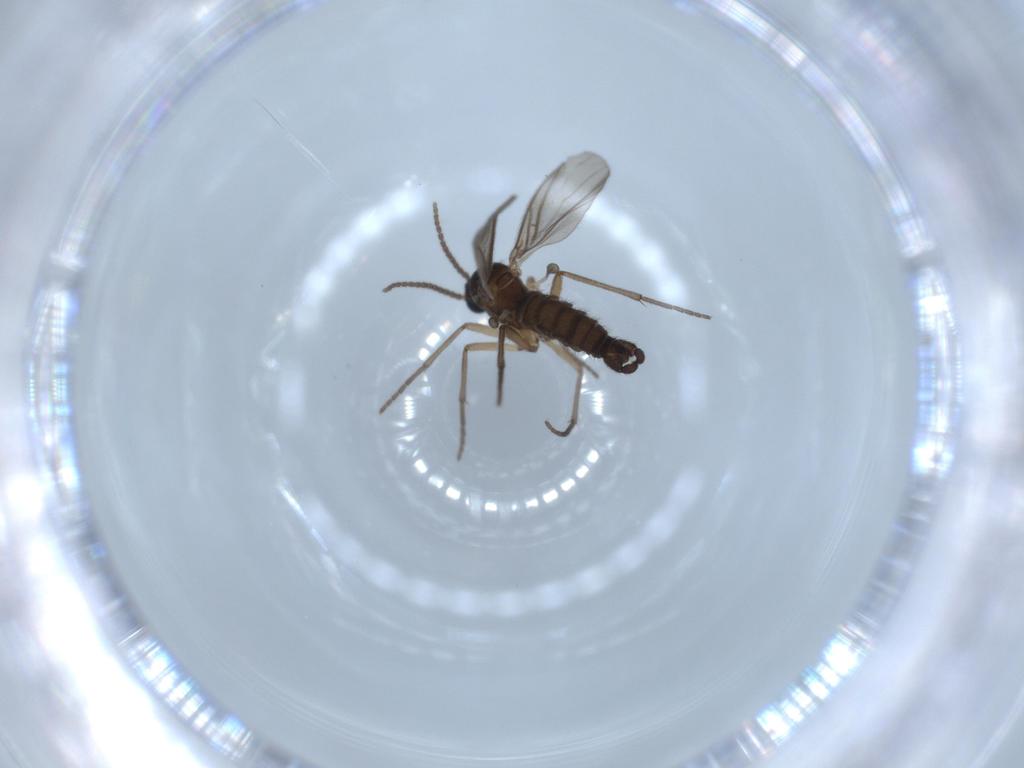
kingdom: Animalia
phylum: Arthropoda
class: Insecta
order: Diptera
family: Sciaridae
